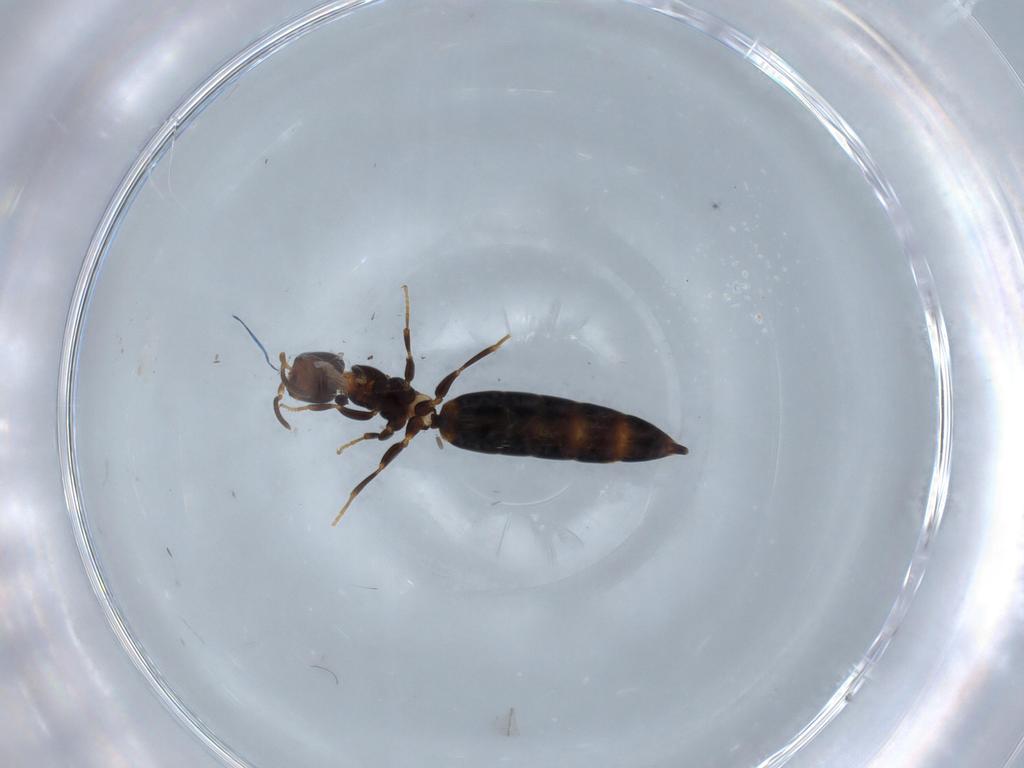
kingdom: Animalia
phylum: Arthropoda
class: Insecta
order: Hymenoptera
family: Bethylidae
